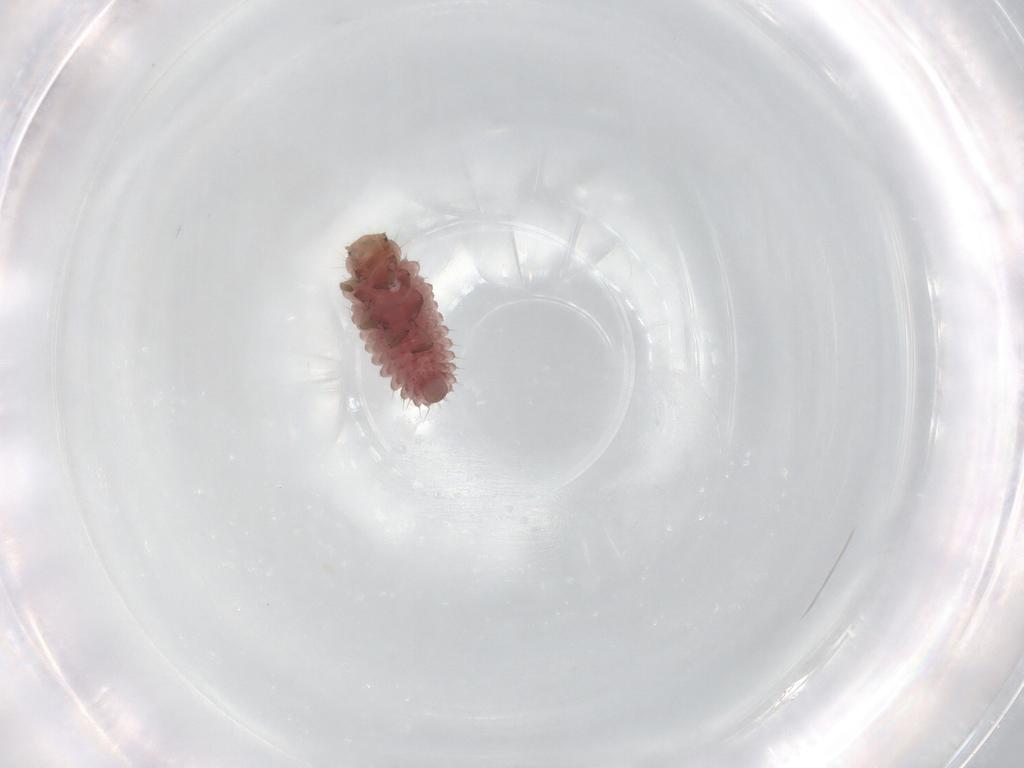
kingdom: Animalia
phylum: Arthropoda
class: Insecta
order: Coleoptera
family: Coccinellidae
